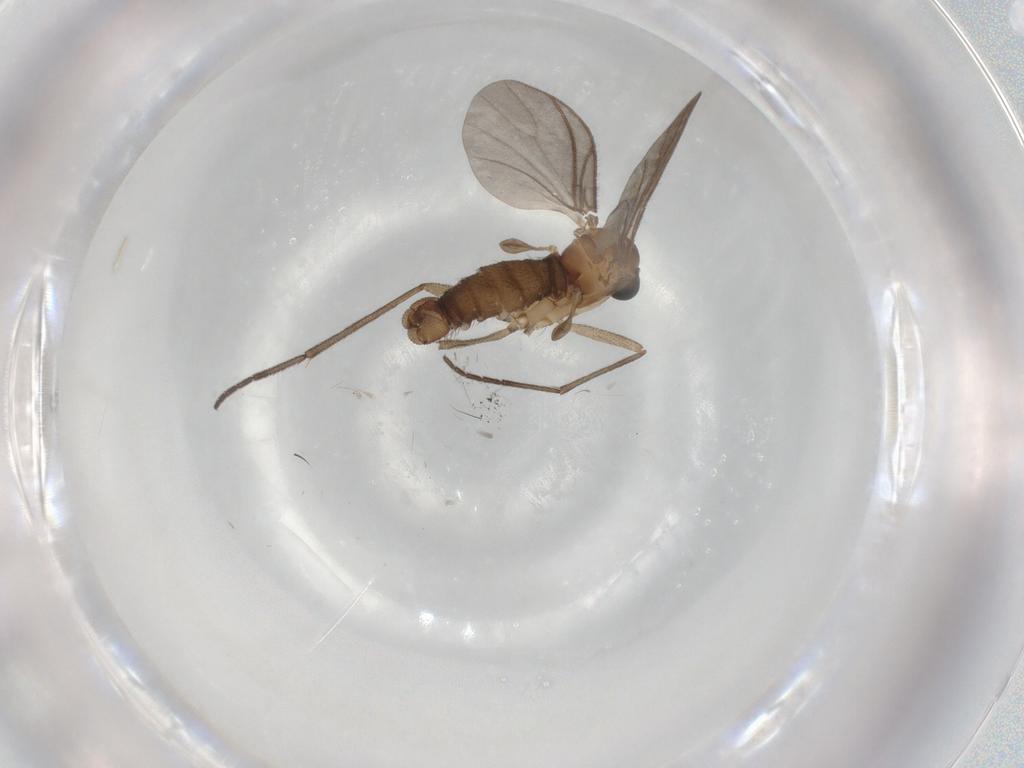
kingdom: Animalia
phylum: Arthropoda
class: Insecta
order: Diptera
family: Sciaridae
